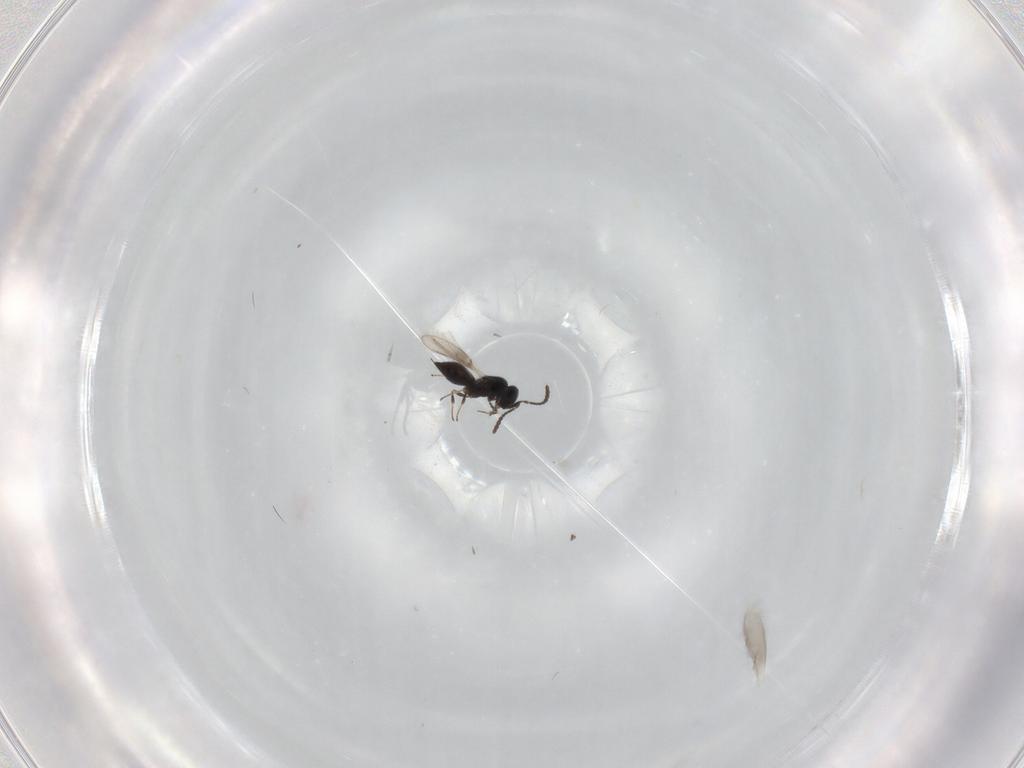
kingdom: Animalia
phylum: Arthropoda
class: Insecta
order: Hymenoptera
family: Scelionidae
